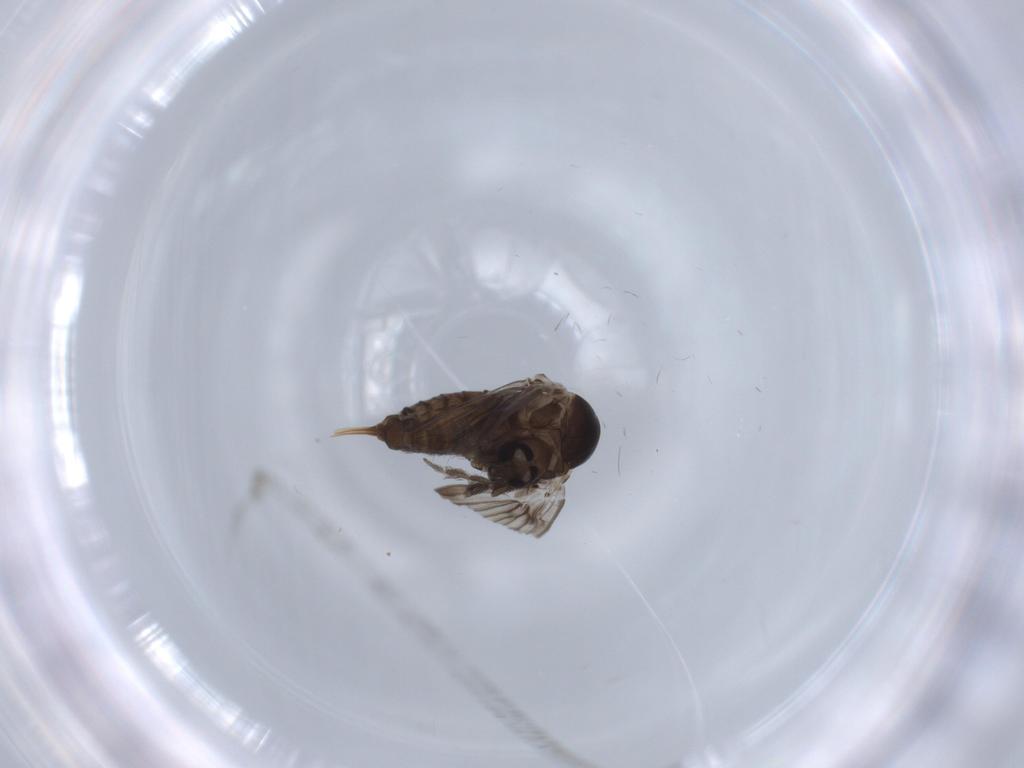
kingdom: Animalia
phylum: Arthropoda
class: Insecta
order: Diptera
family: Psychodidae
